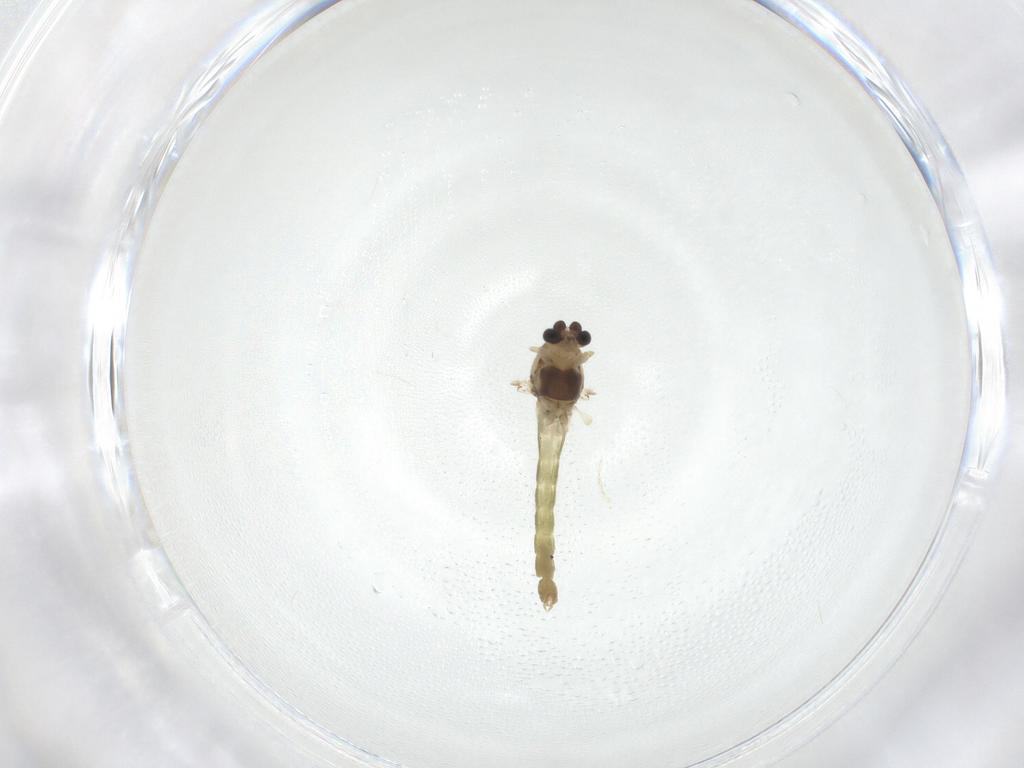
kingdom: Animalia
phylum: Arthropoda
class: Insecta
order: Diptera
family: Chironomidae
